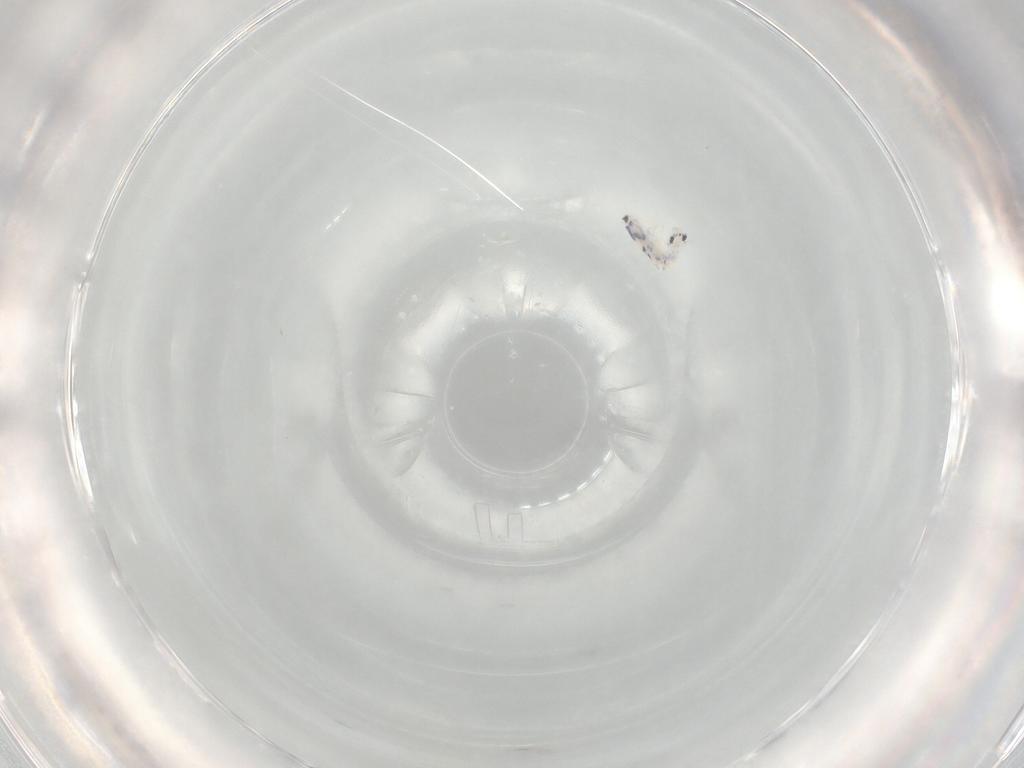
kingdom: Animalia
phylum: Arthropoda
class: Collembola
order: Entomobryomorpha
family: Entomobryidae
